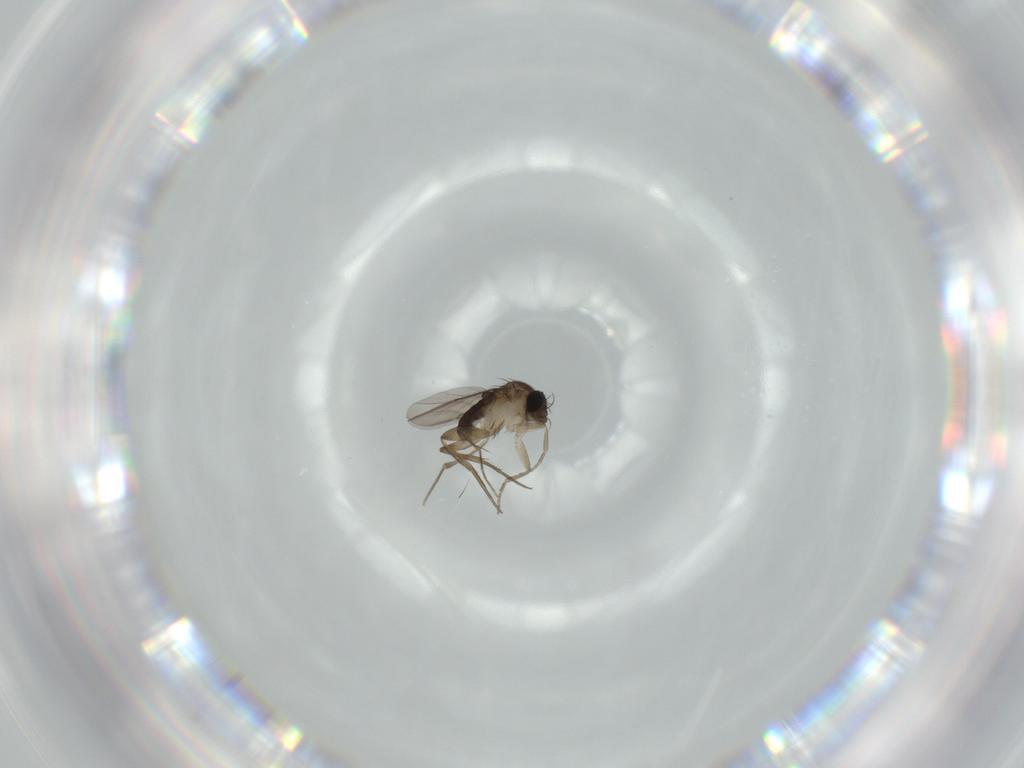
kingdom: Animalia
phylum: Arthropoda
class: Insecta
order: Diptera
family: Phoridae
